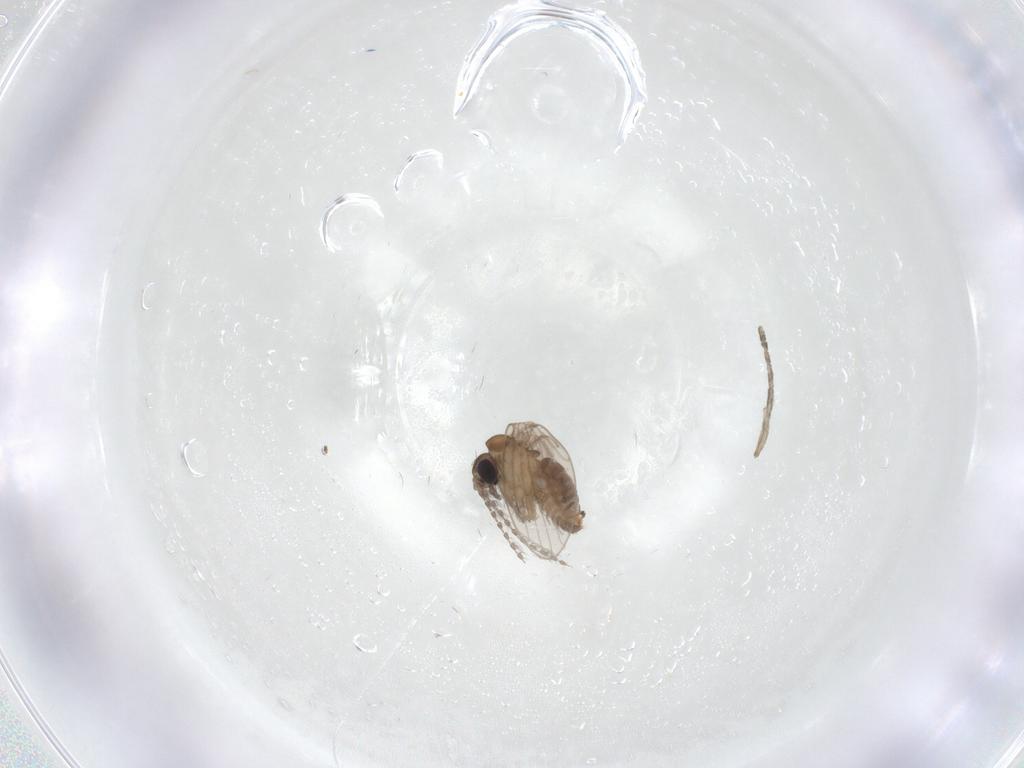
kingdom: Animalia
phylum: Arthropoda
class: Insecta
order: Diptera
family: Psychodidae
